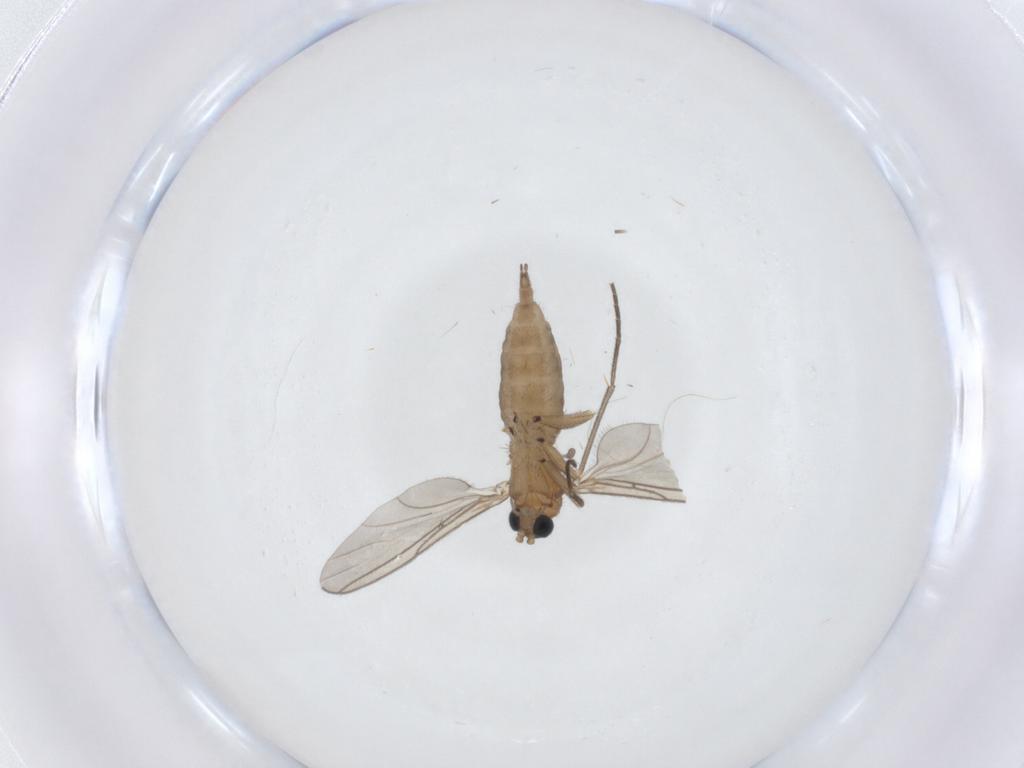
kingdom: Animalia
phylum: Arthropoda
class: Insecta
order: Diptera
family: Sciaridae
